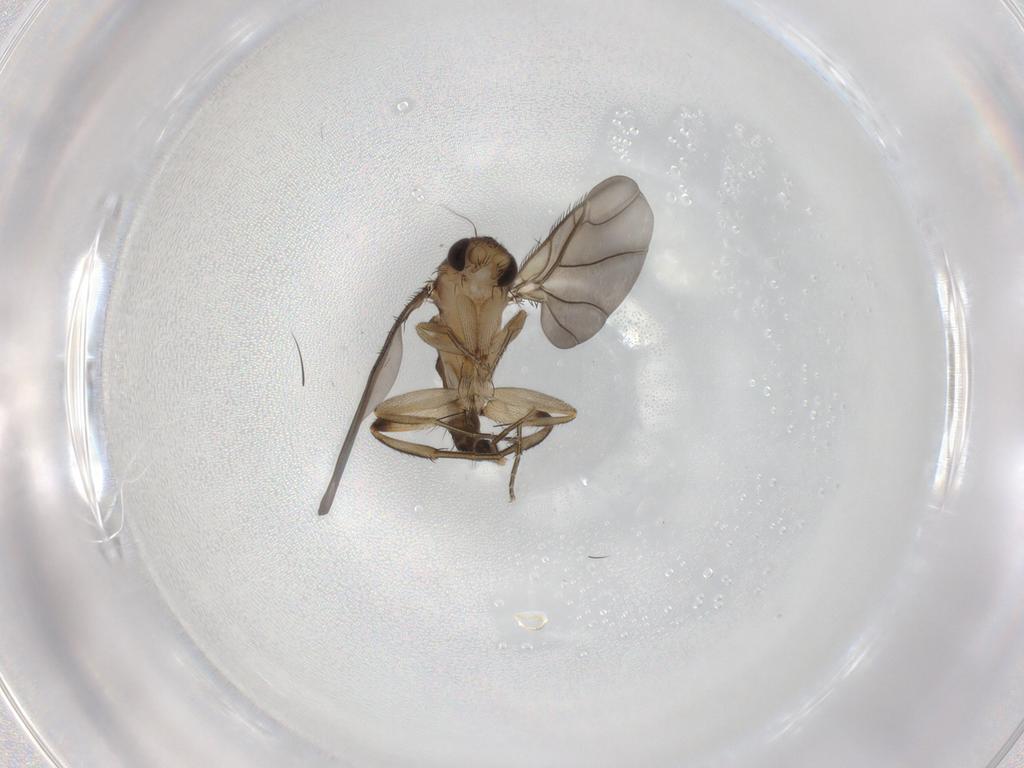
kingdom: Animalia
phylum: Arthropoda
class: Insecta
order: Diptera
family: Phoridae
